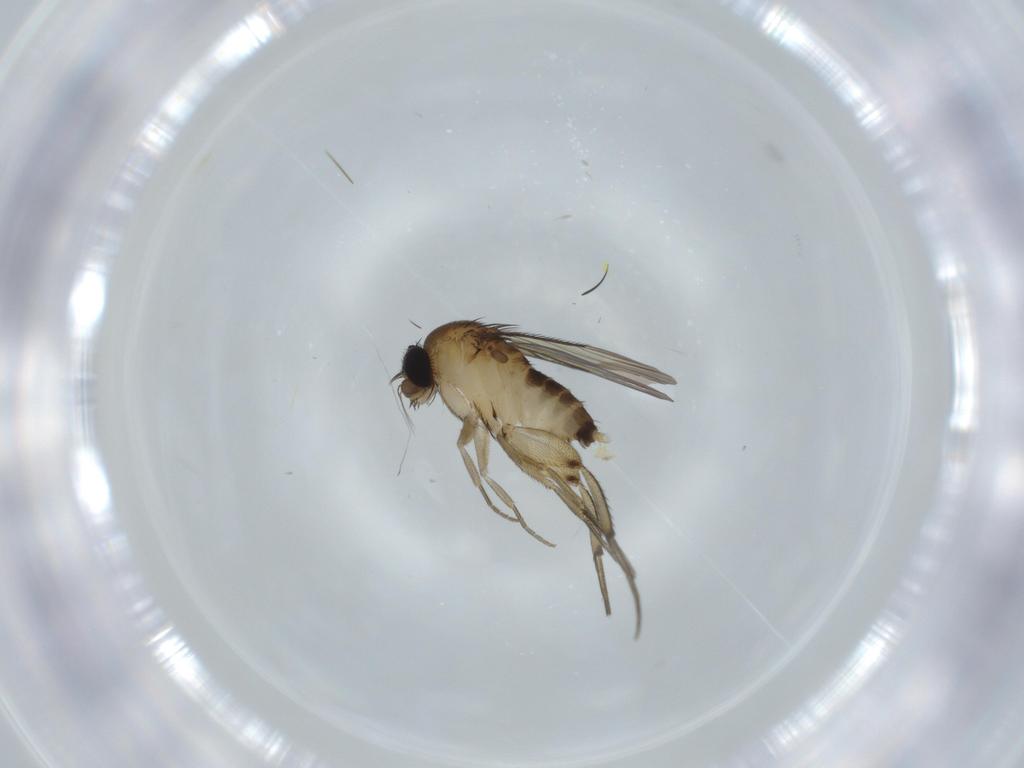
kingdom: Animalia
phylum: Arthropoda
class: Insecta
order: Diptera
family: Phoridae
